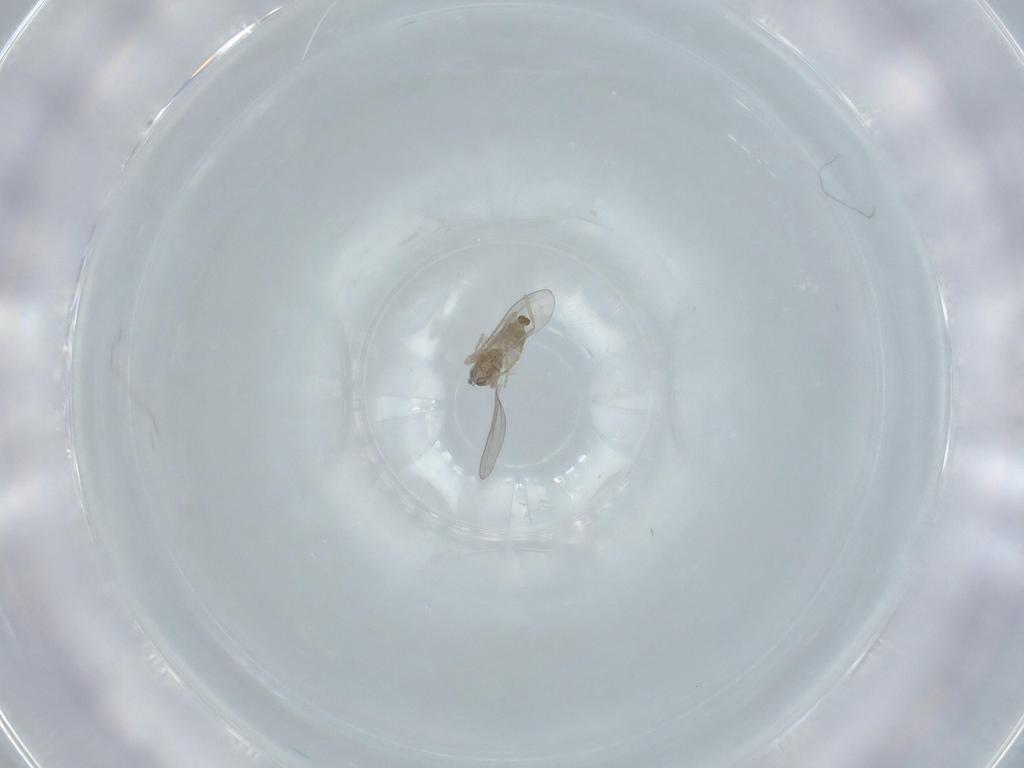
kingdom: Animalia
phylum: Arthropoda
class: Insecta
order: Diptera
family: Cecidomyiidae
